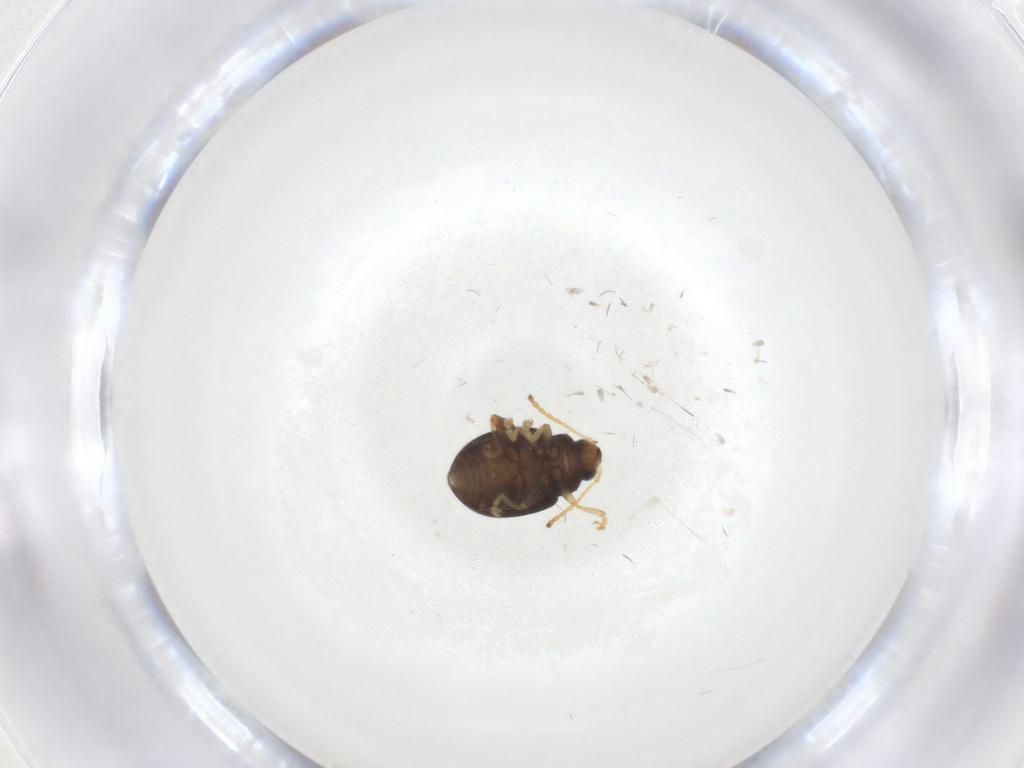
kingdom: Animalia
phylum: Arthropoda
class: Insecta
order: Coleoptera
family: Chrysomelidae
